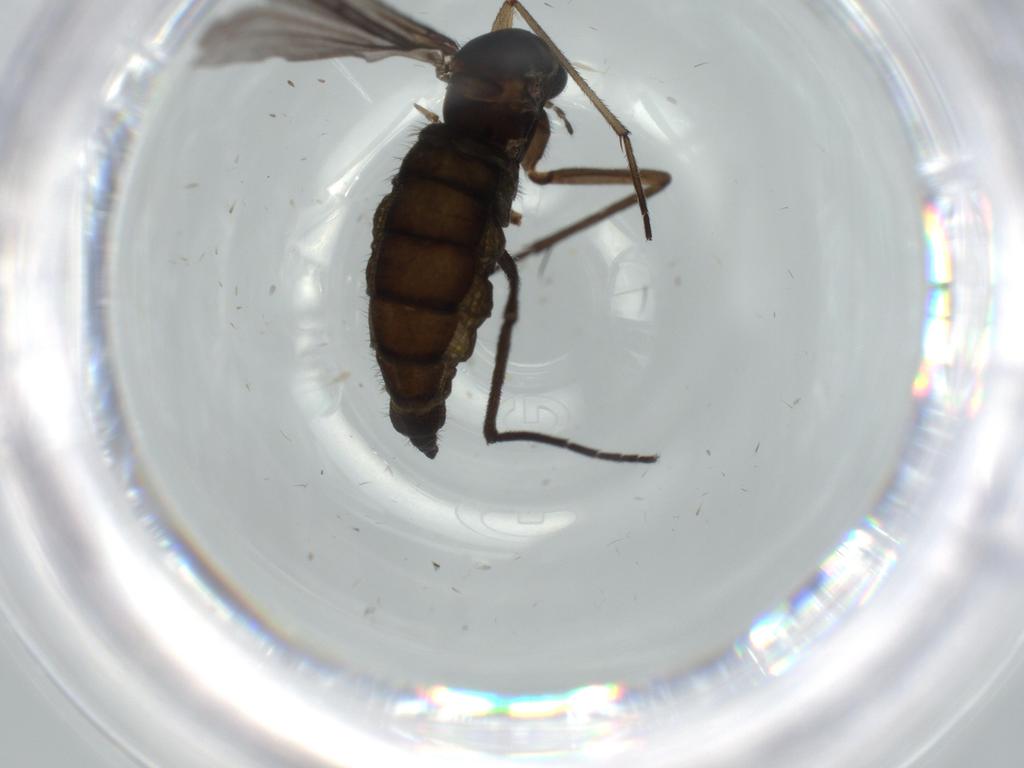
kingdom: Animalia
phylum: Arthropoda
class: Insecta
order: Diptera
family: Sciaridae
